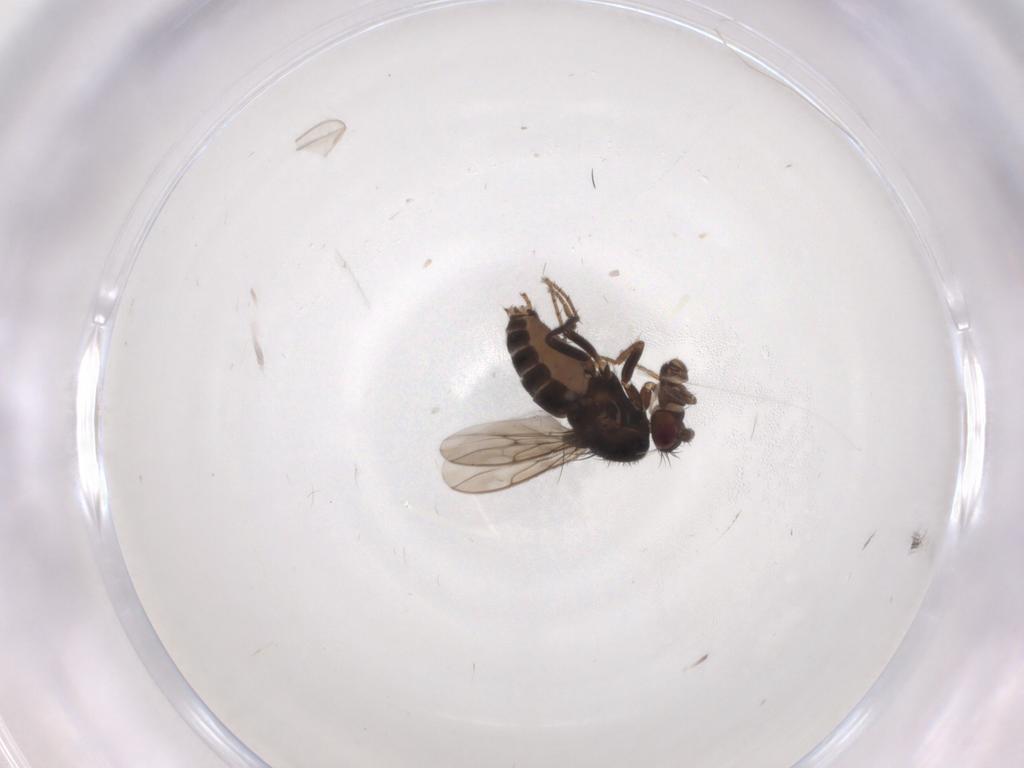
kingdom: Animalia
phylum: Arthropoda
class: Insecta
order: Diptera
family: Sphaeroceridae
